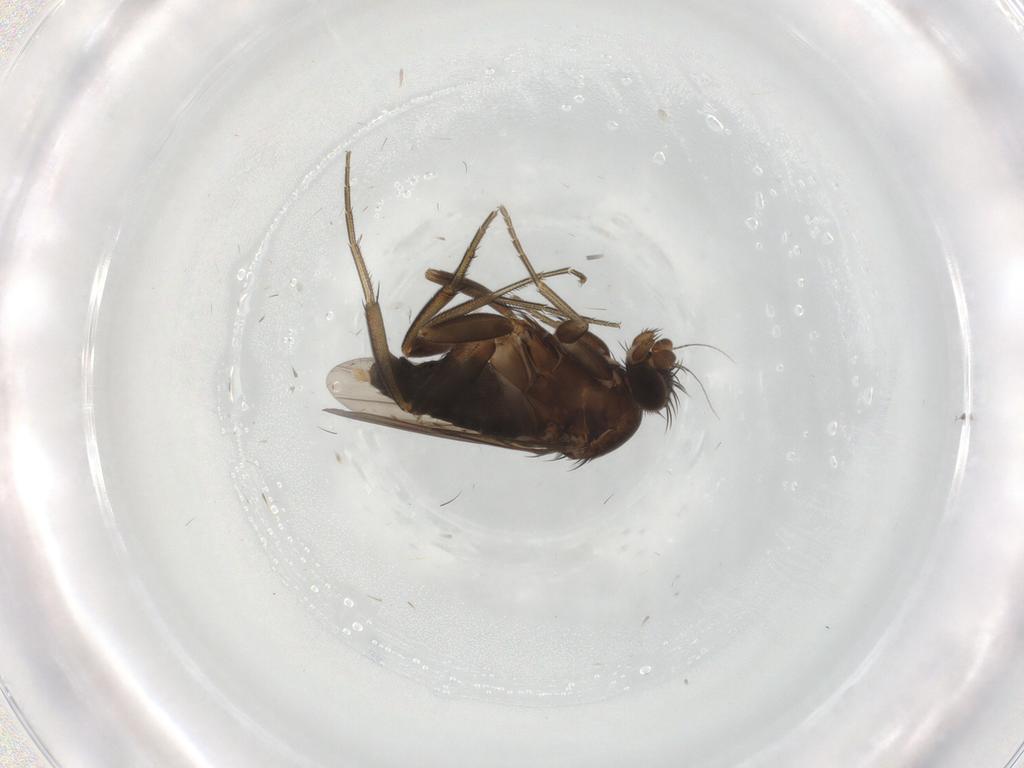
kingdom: Animalia
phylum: Arthropoda
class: Insecta
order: Diptera
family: Phoridae
